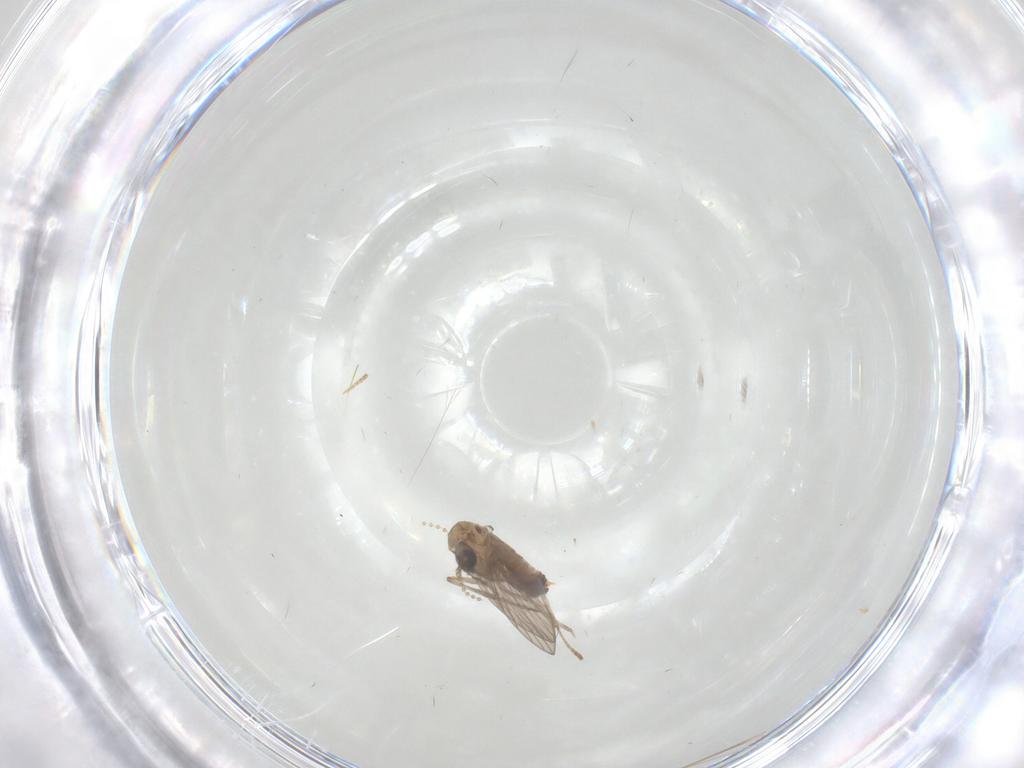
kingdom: Animalia
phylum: Arthropoda
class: Insecta
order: Diptera
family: Psychodidae
